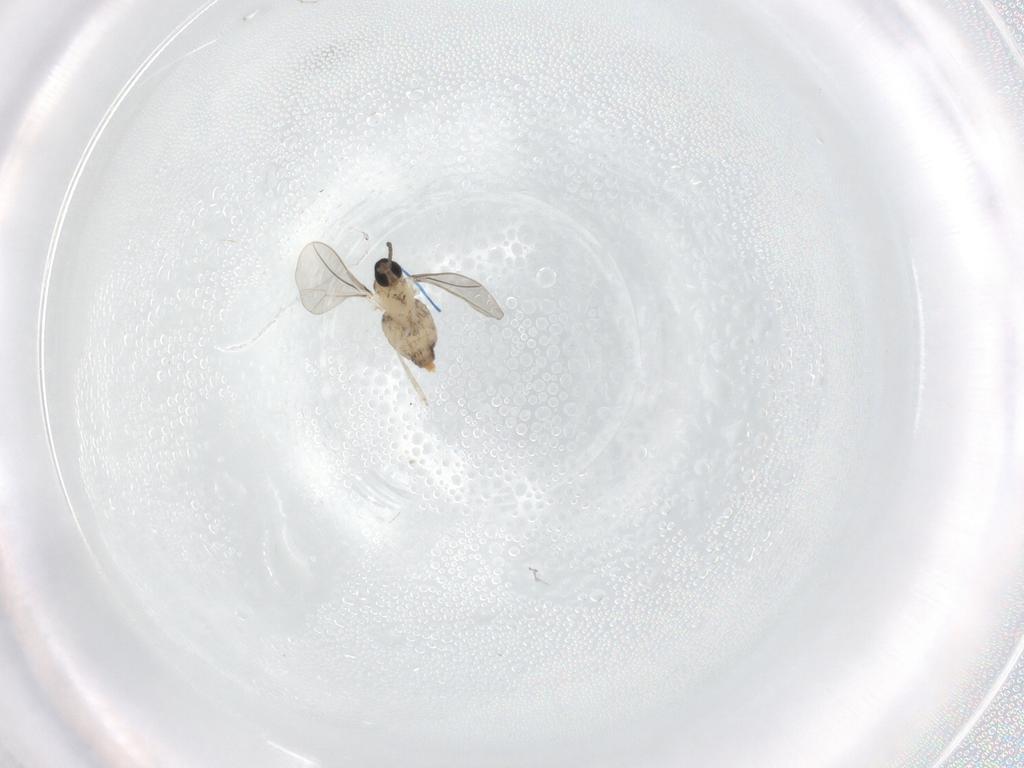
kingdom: Animalia
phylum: Arthropoda
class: Insecta
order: Diptera
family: Cecidomyiidae
